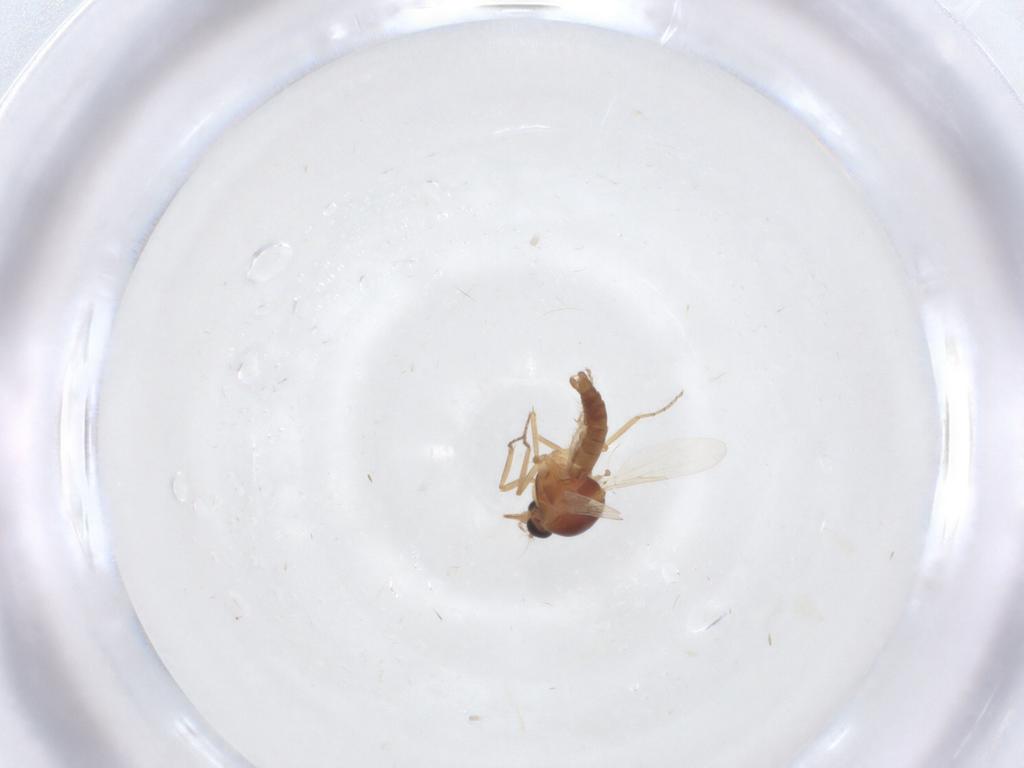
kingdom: Animalia
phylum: Arthropoda
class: Insecta
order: Diptera
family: Ceratopogonidae
